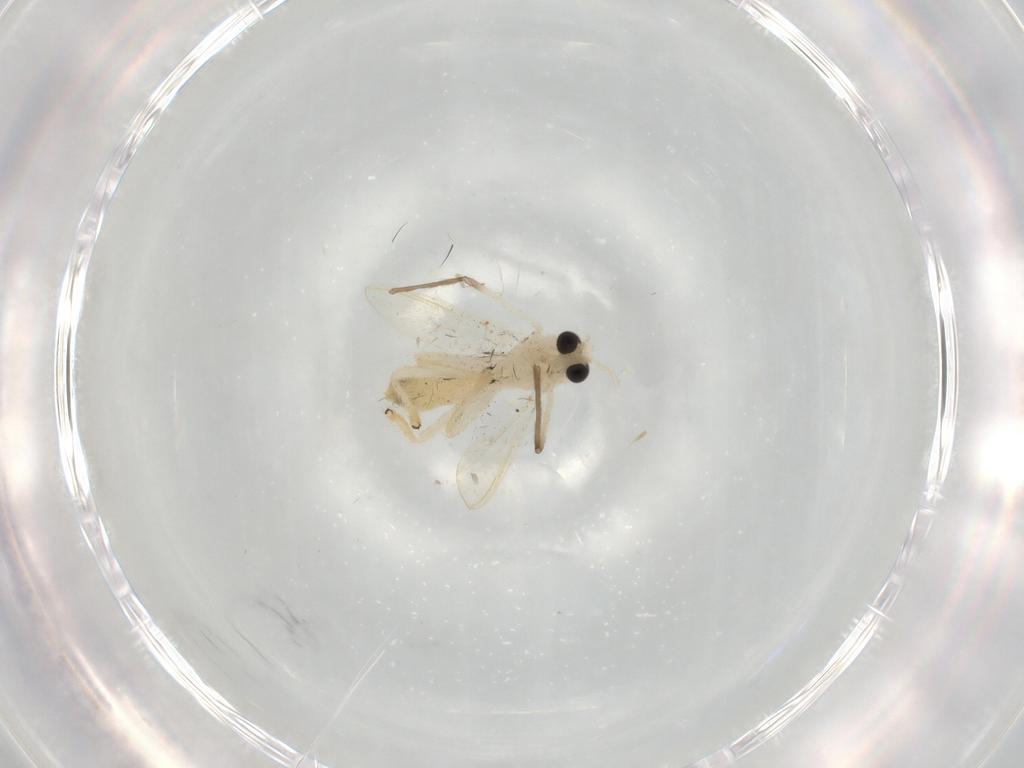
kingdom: Animalia
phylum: Arthropoda
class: Insecta
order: Diptera
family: Chironomidae
